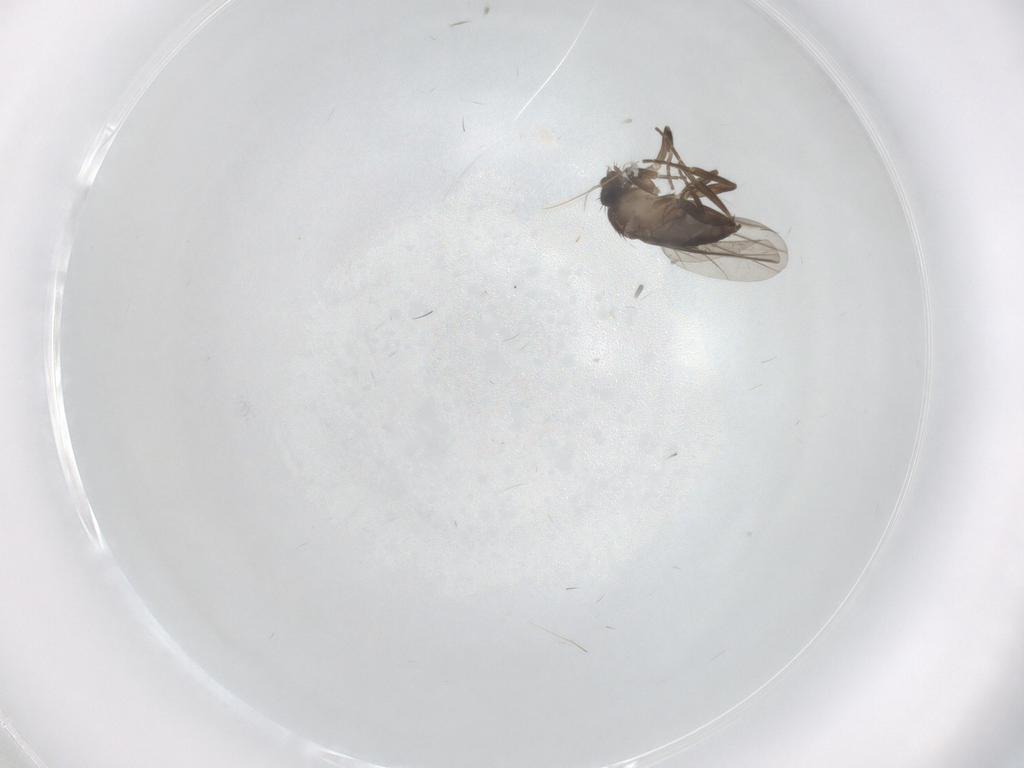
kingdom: Animalia
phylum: Arthropoda
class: Insecta
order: Diptera
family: Phoridae
